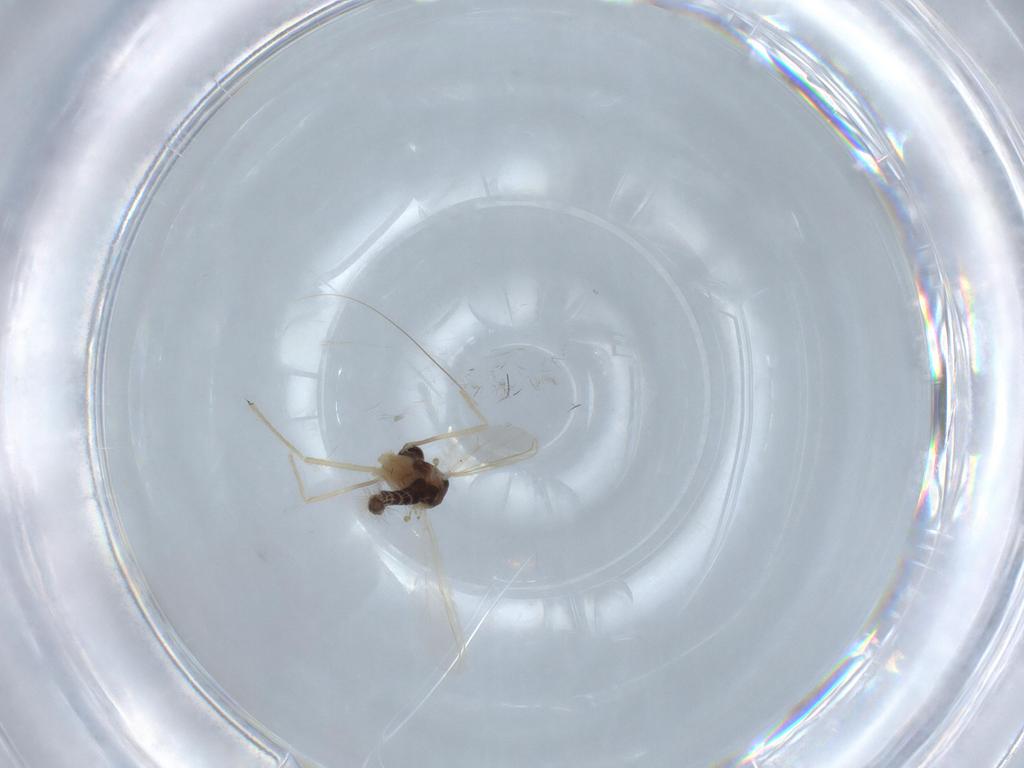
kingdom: Animalia
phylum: Arthropoda
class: Insecta
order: Diptera
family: Chironomidae
